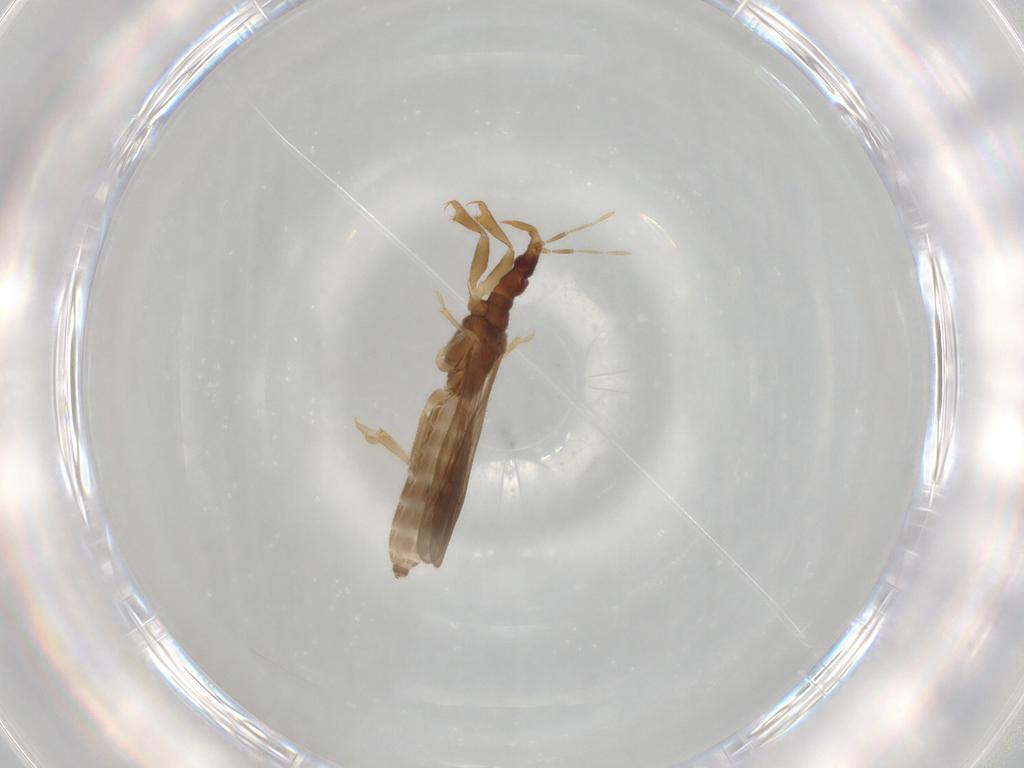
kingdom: Animalia
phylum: Arthropoda
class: Insecta
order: Hemiptera
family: Enicocephalidae
